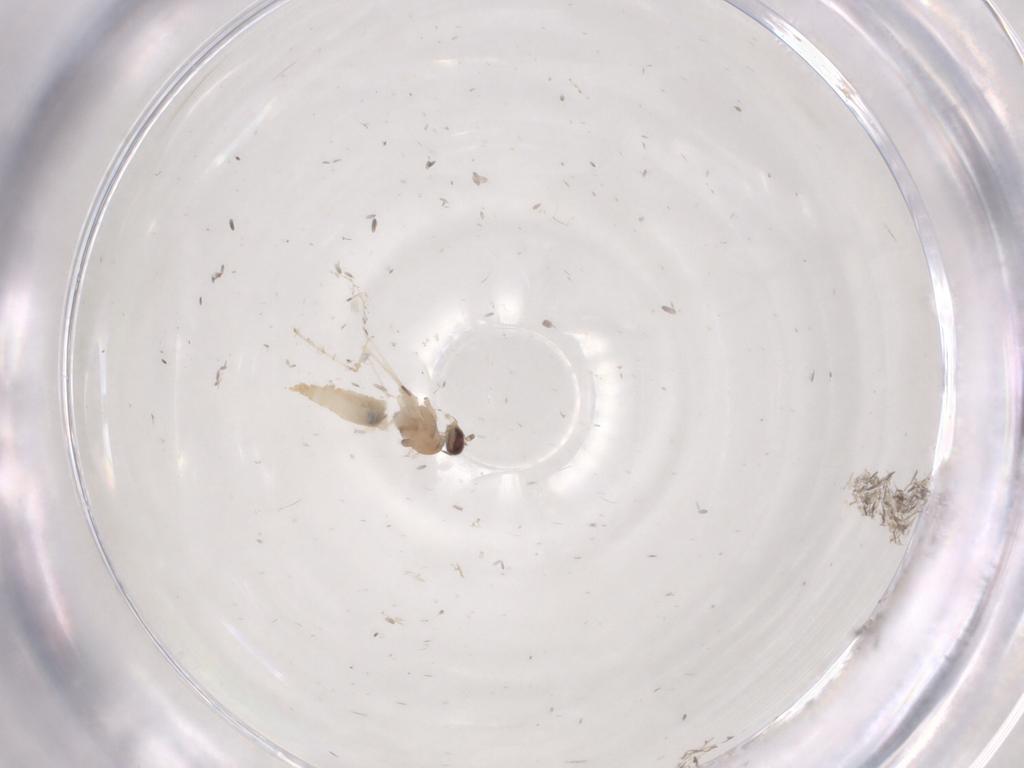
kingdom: Animalia
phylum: Arthropoda
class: Insecta
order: Diptera
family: Cecidomyiidae
